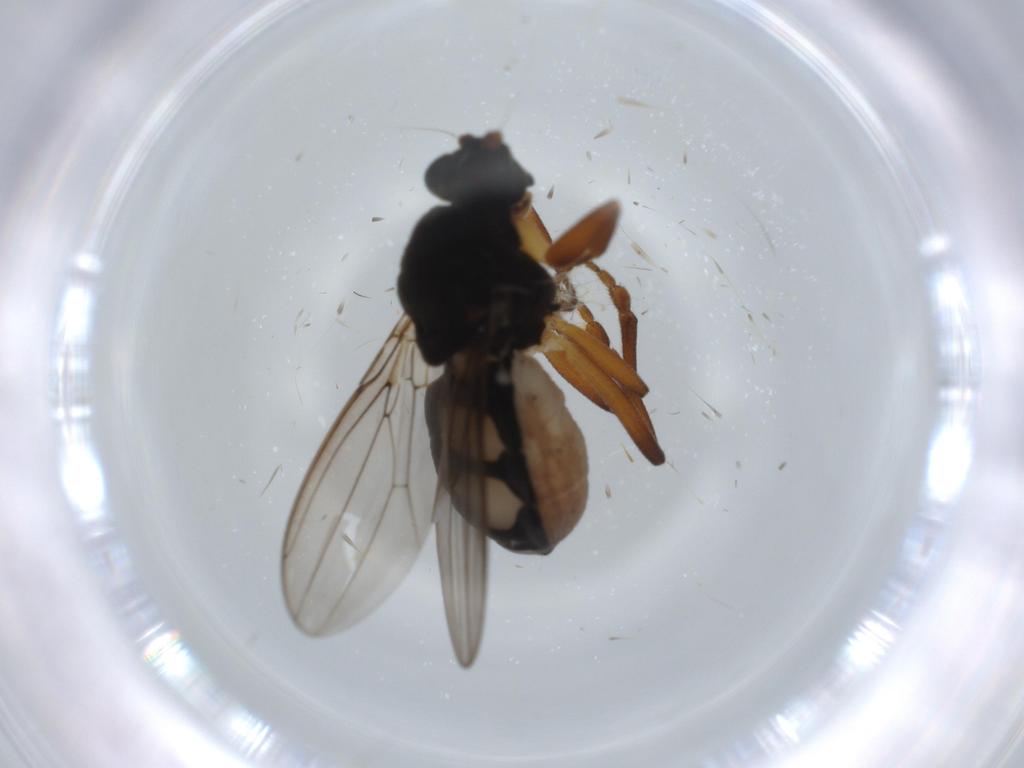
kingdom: Animalia
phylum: Arthropoda
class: Insecta
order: Diptera
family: Sphaeroceridae
